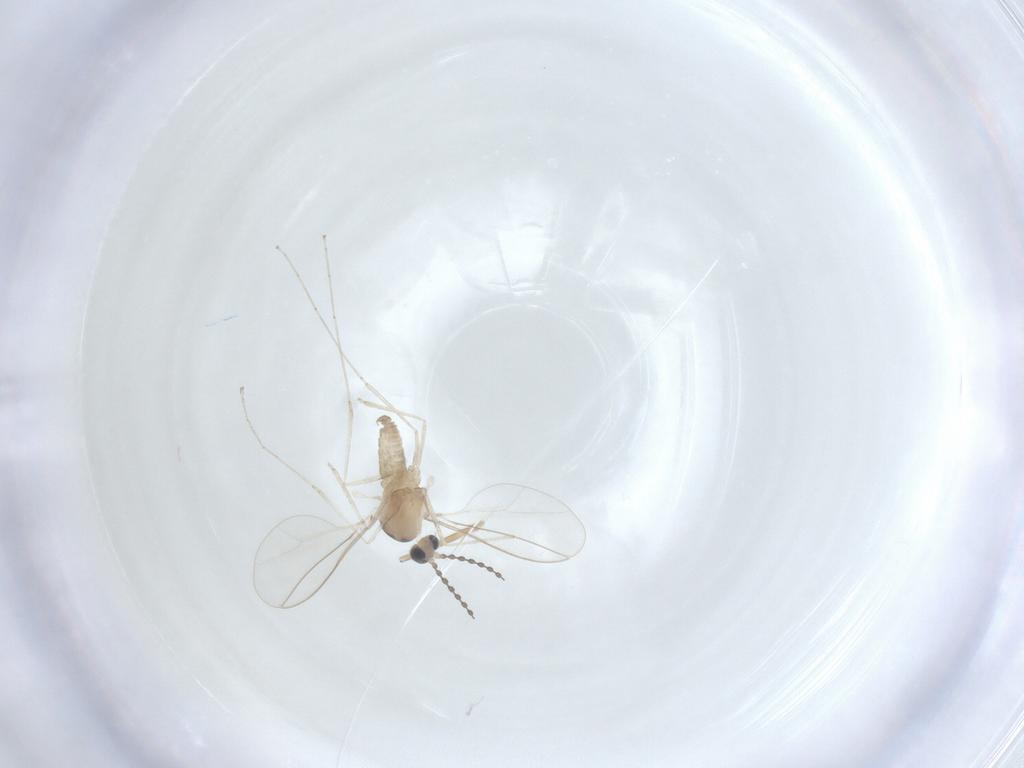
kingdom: Animalia
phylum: Arthropoda
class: Insecta
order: Diptera
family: Cecidomyiidae
